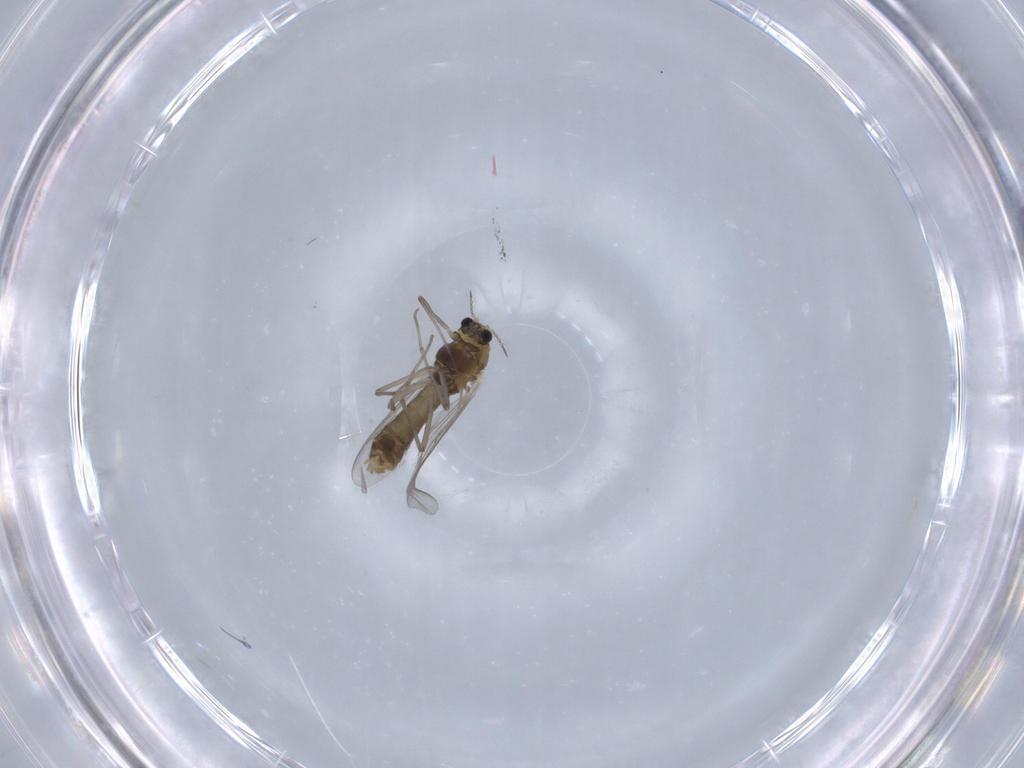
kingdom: Animalia
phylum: Arthropoda
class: Insecta
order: Diptera
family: Chironomidae
